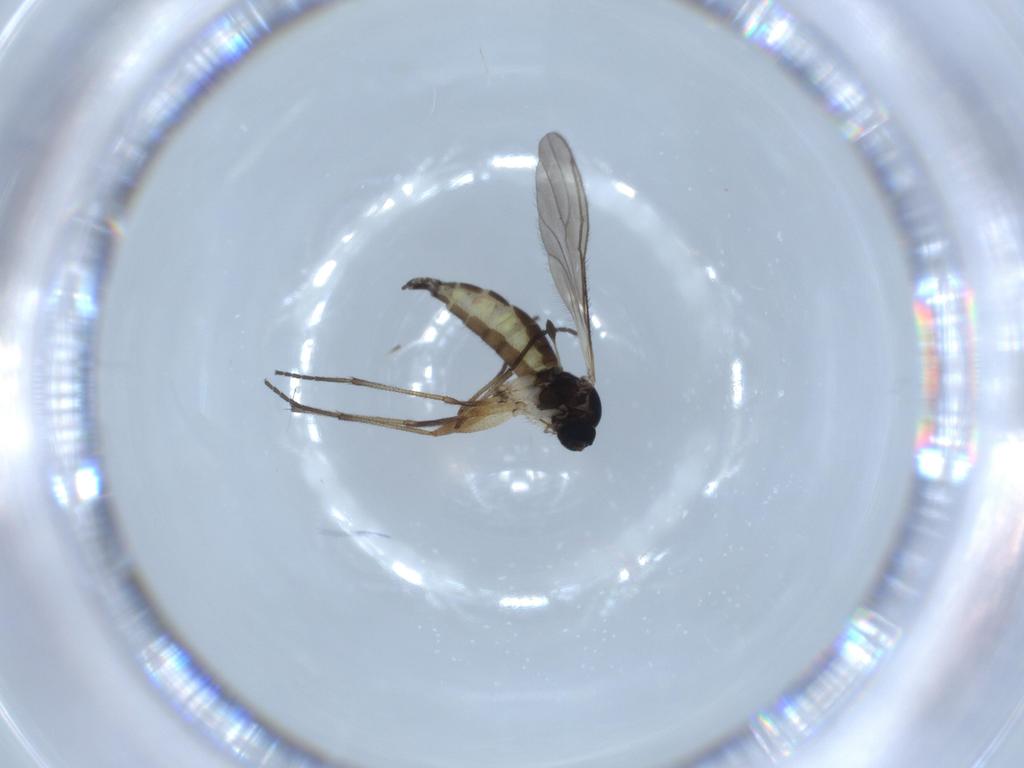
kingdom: Animalia
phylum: Arthropoda
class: Insecta
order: Diptera
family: Sciaridae
